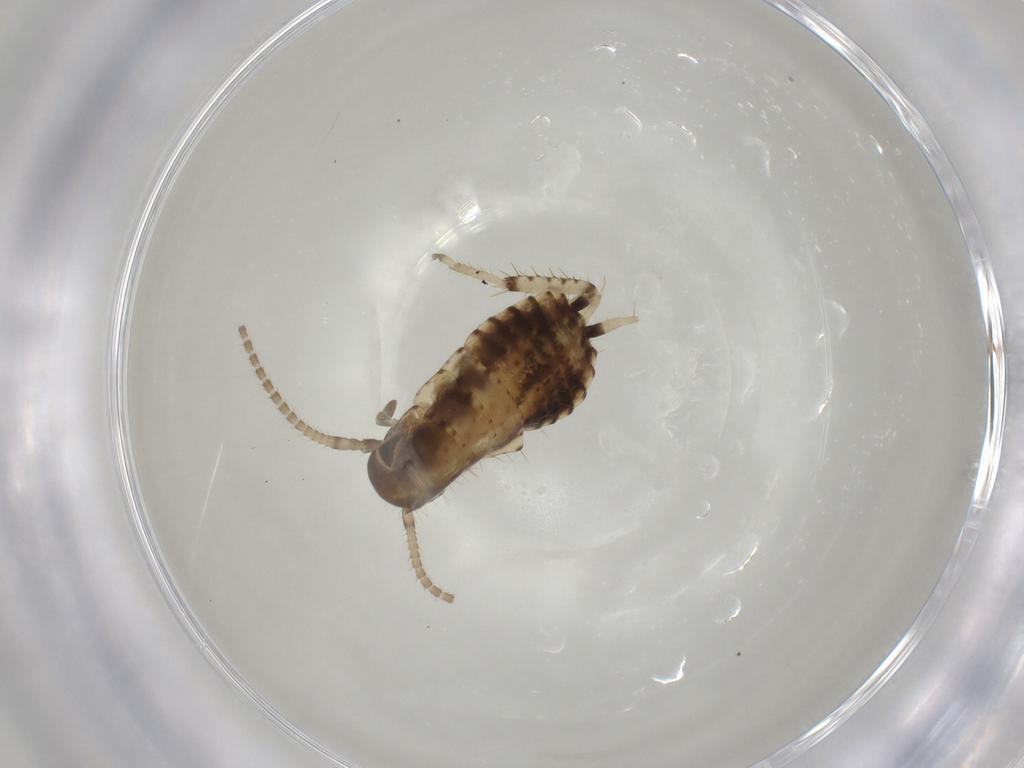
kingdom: Animalia
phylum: Arthropoda
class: Insecta
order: Blattodea
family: Blaberidae
